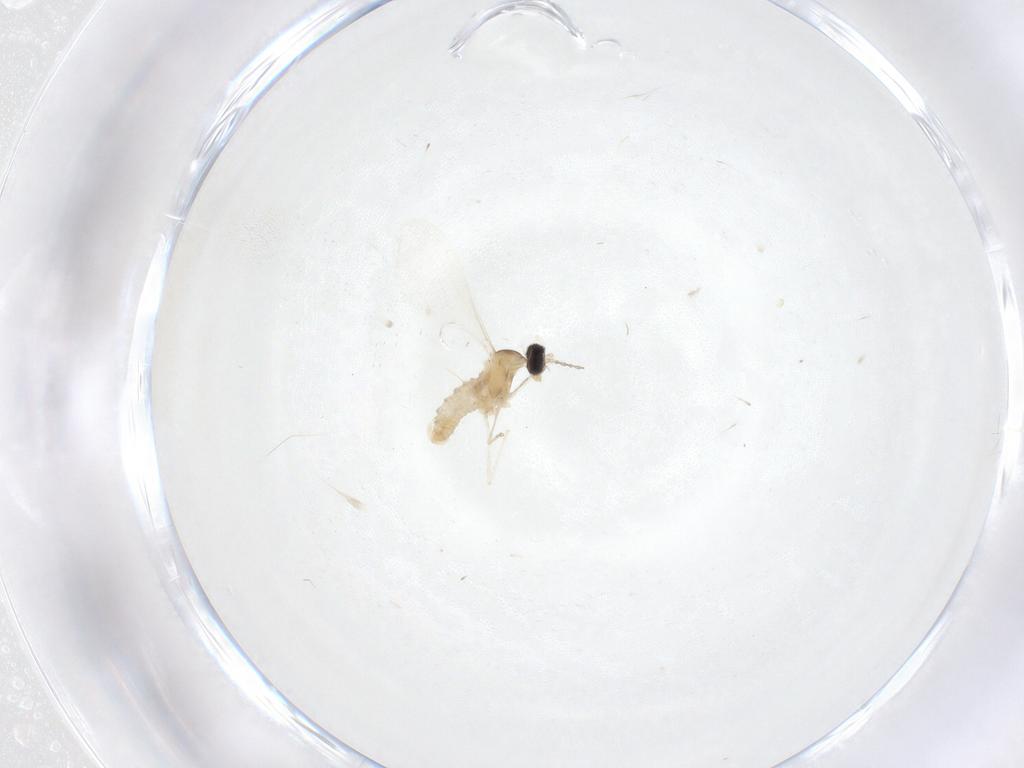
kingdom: Animalia
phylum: Arthropoda
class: Insecta
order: Diptera
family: Cecidomyiidae
